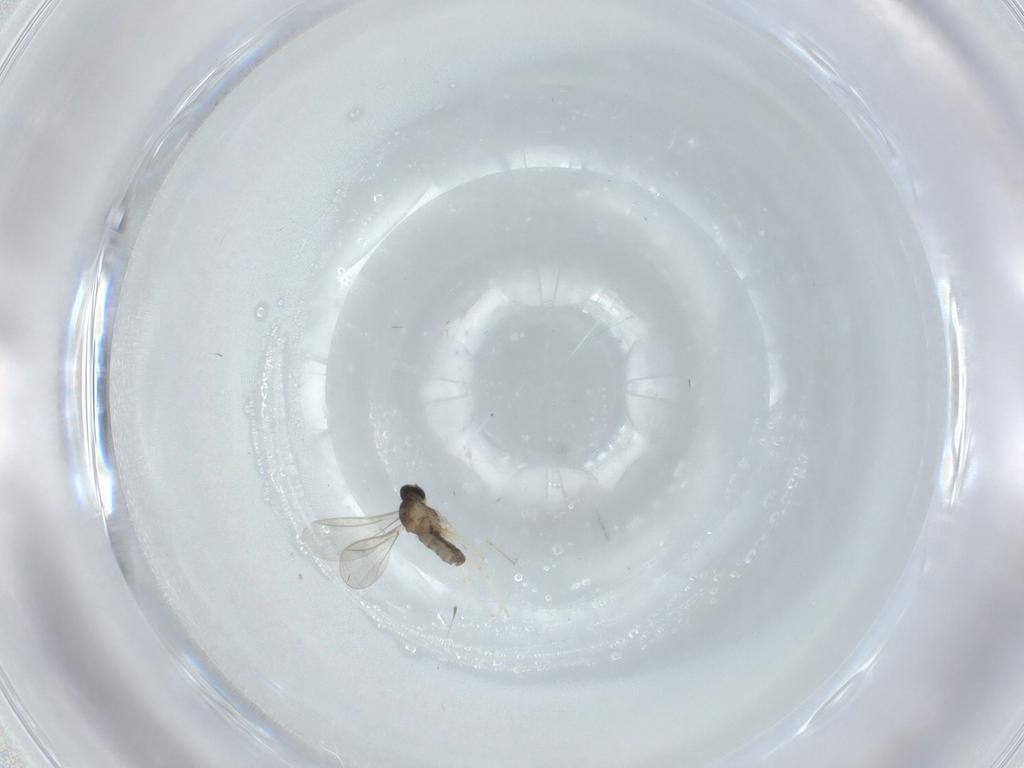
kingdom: Animalia
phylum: Arthropoda
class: Insecta
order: Diptera
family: Cecidomyiidae
